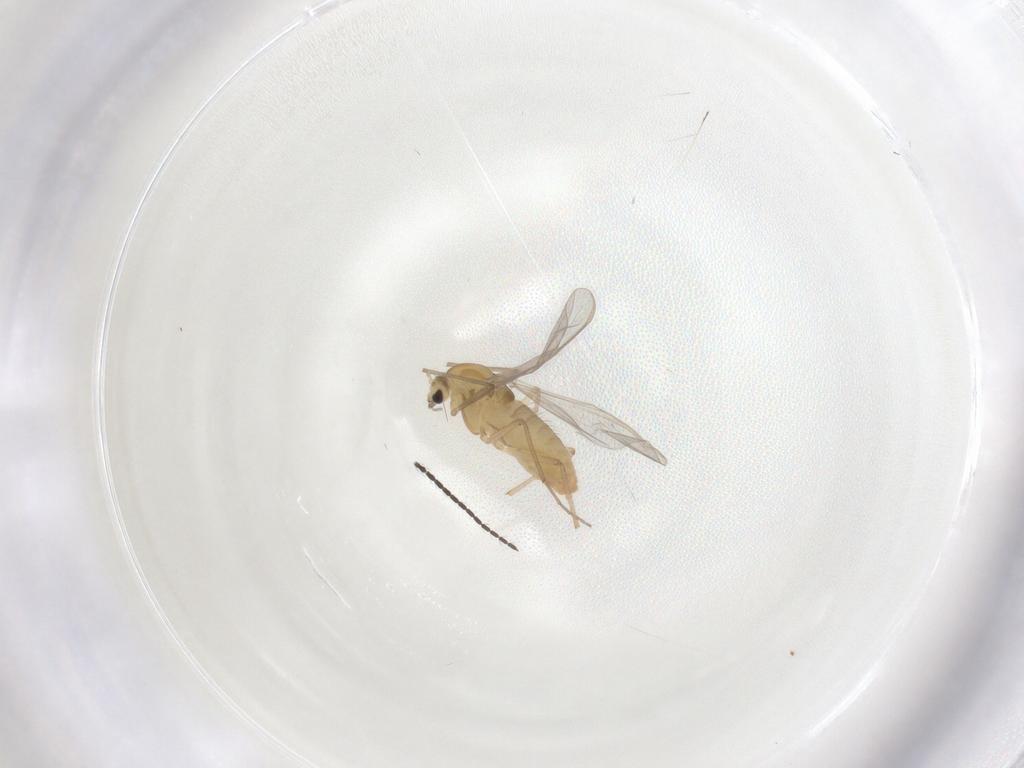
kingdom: Animalia
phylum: Arthropoda
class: Insecta
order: Diptera
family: Chironomidae
